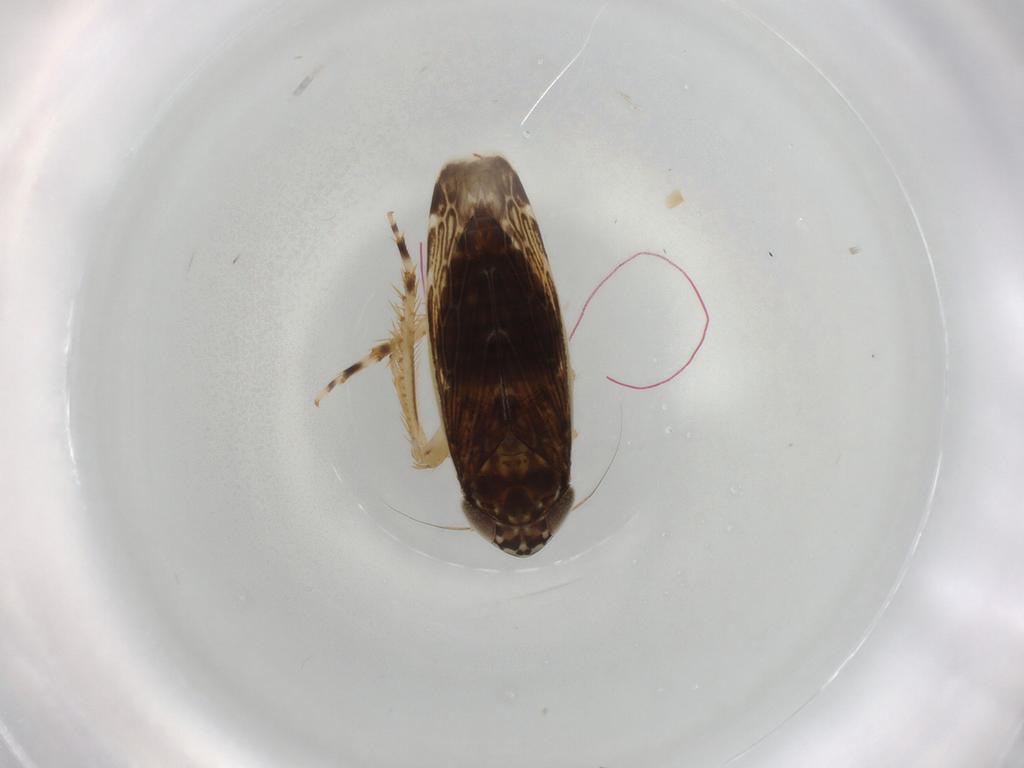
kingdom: Animalia
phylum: Arthropoda
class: Insecta
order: Hemiptera
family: Cicadellidae
